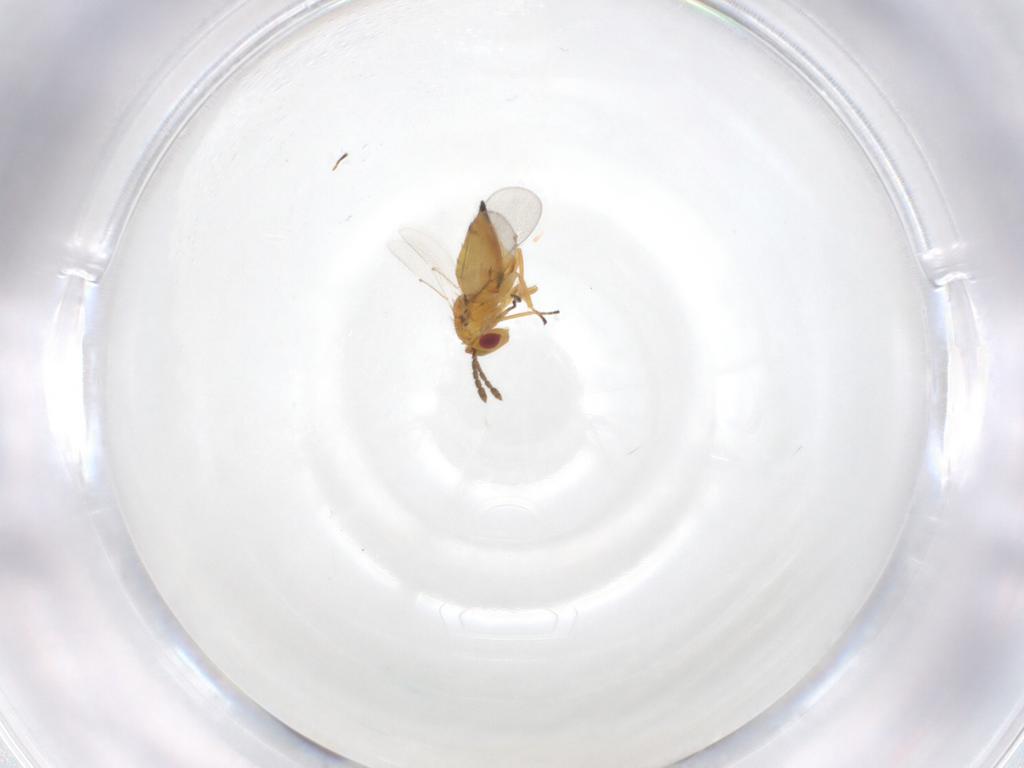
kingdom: Animalia
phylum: Arthropoda
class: Insecta
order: Hymenoptera
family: Eulophidae
